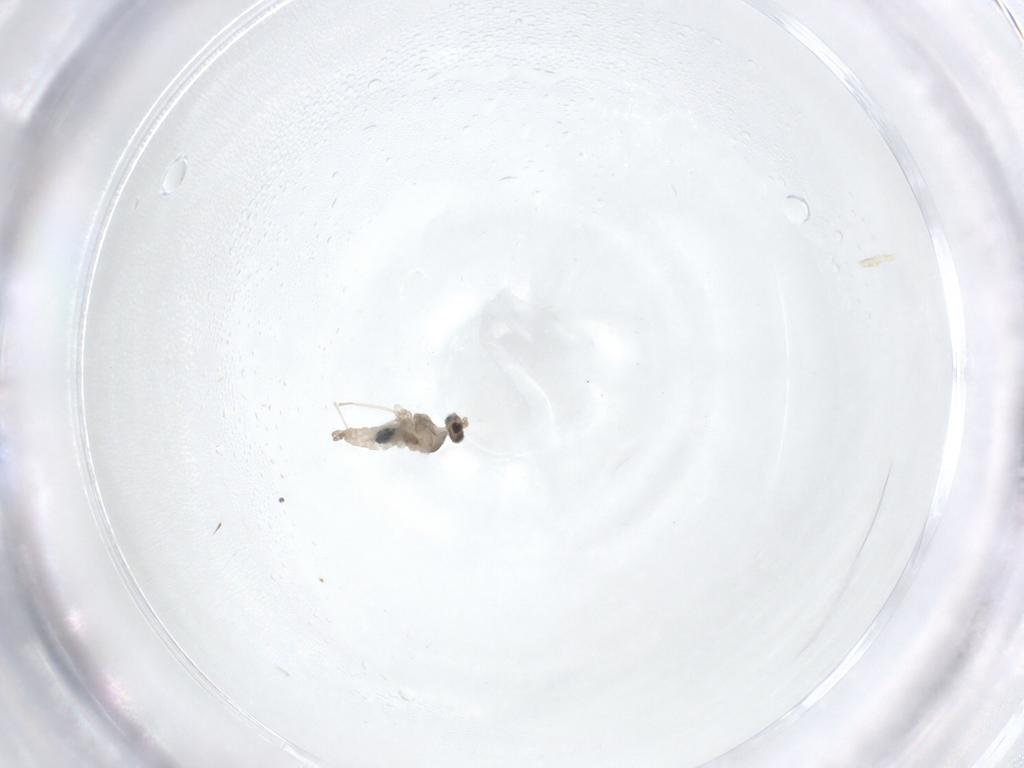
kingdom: Animalia
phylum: Arthropoda
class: Insecta
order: Diptera
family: Cecidomyiidae
